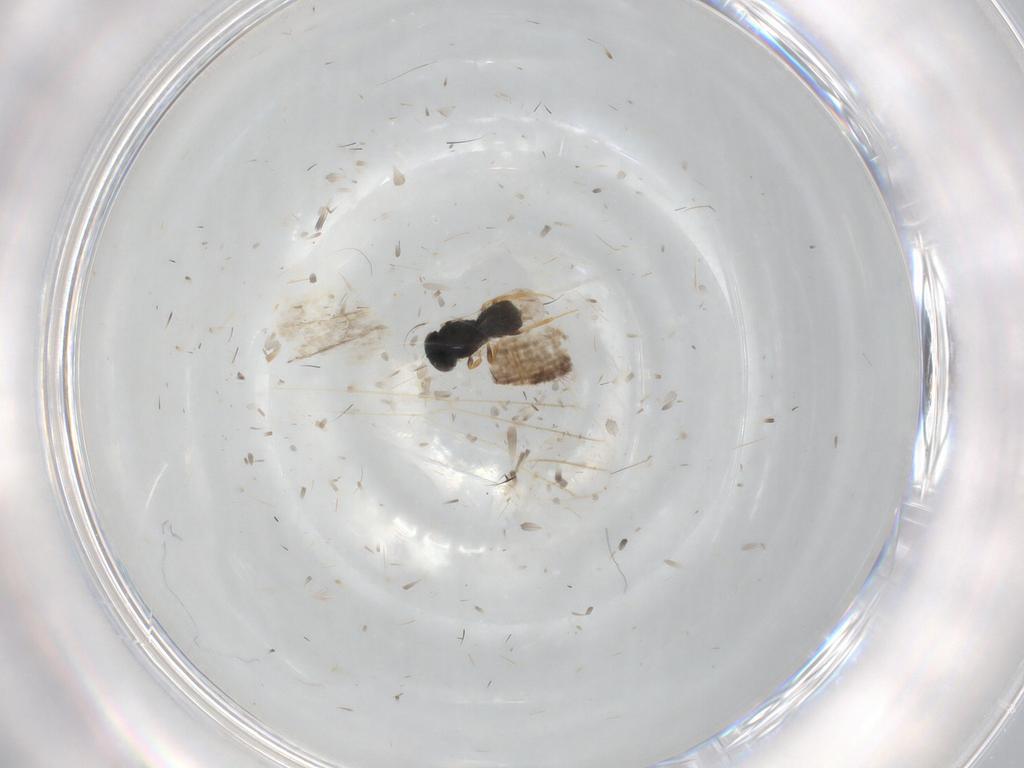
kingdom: Animalia
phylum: Arthropoda
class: Insecta
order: Hymenoptera
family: Scelionidae
